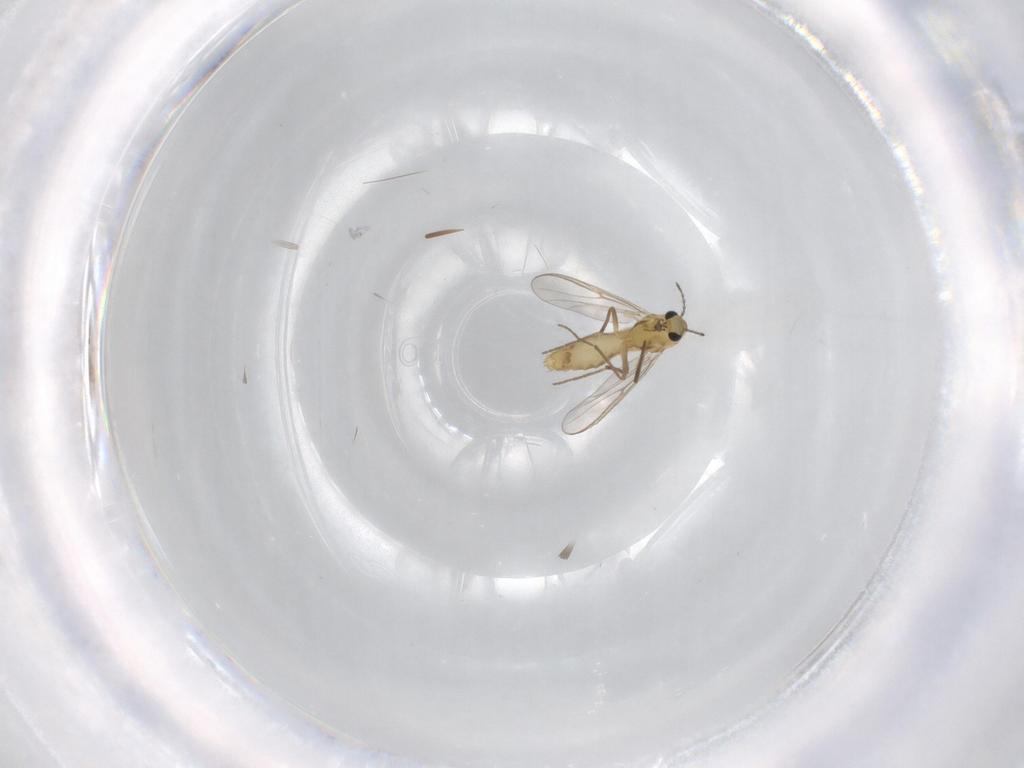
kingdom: Animalia
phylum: Arthropoda
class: Insecta
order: Diptera
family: Chironomidae
